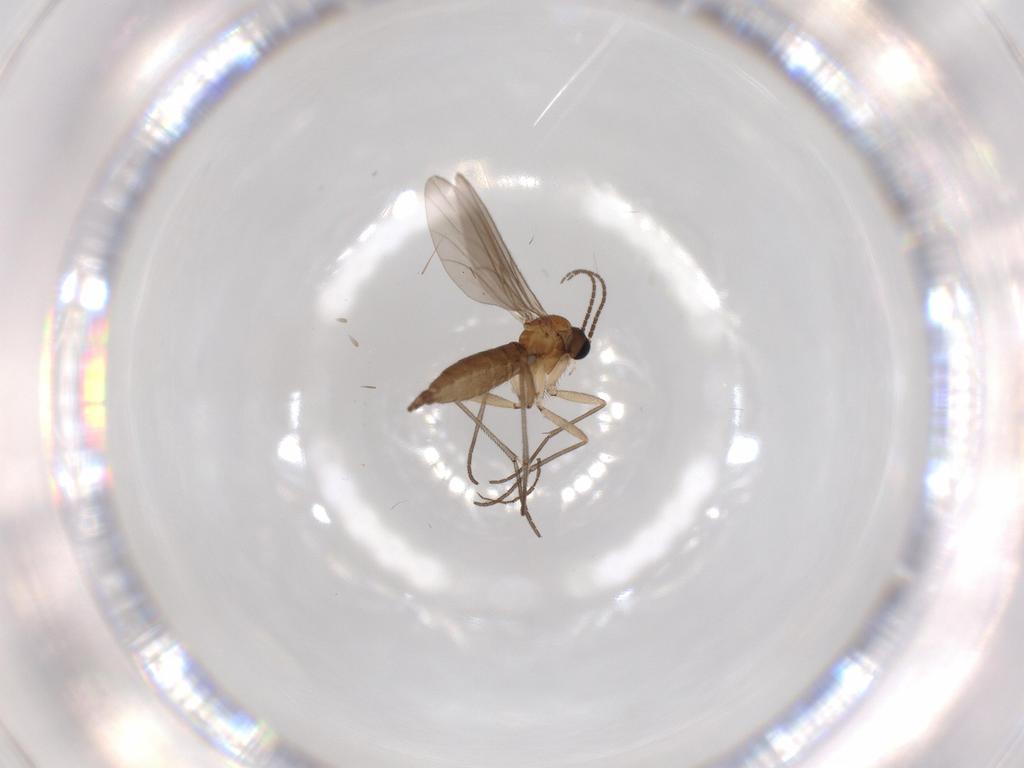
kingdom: Animalia
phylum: Arthropoda
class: Insecta
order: Diptera
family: Sciaridae
